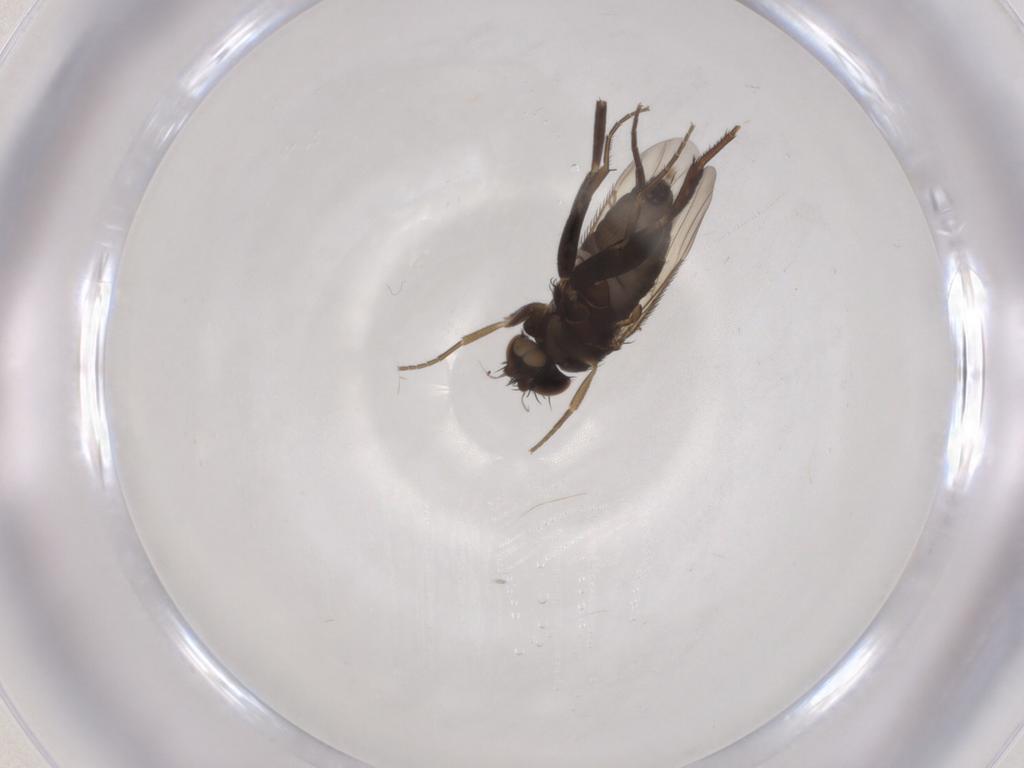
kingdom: Animalia
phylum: Arthropoda
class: Insecta
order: Diptera
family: Phoridae
